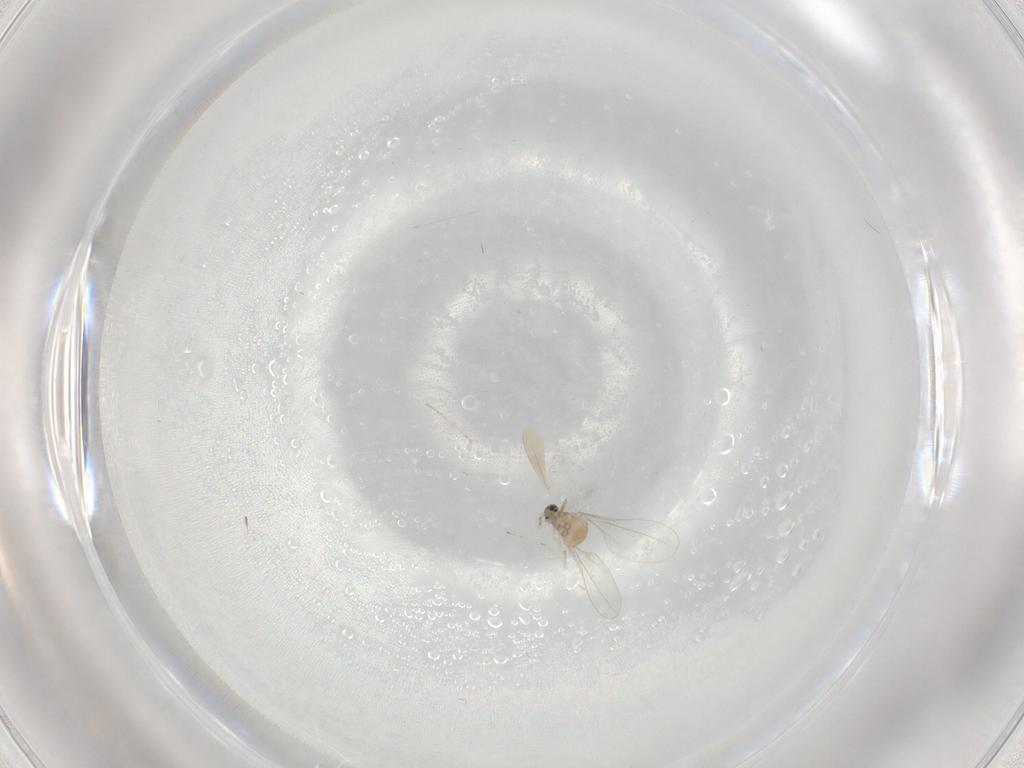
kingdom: Animalia
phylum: Arthropoda
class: Insecta
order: Diptera
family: Cecidomyiidae
